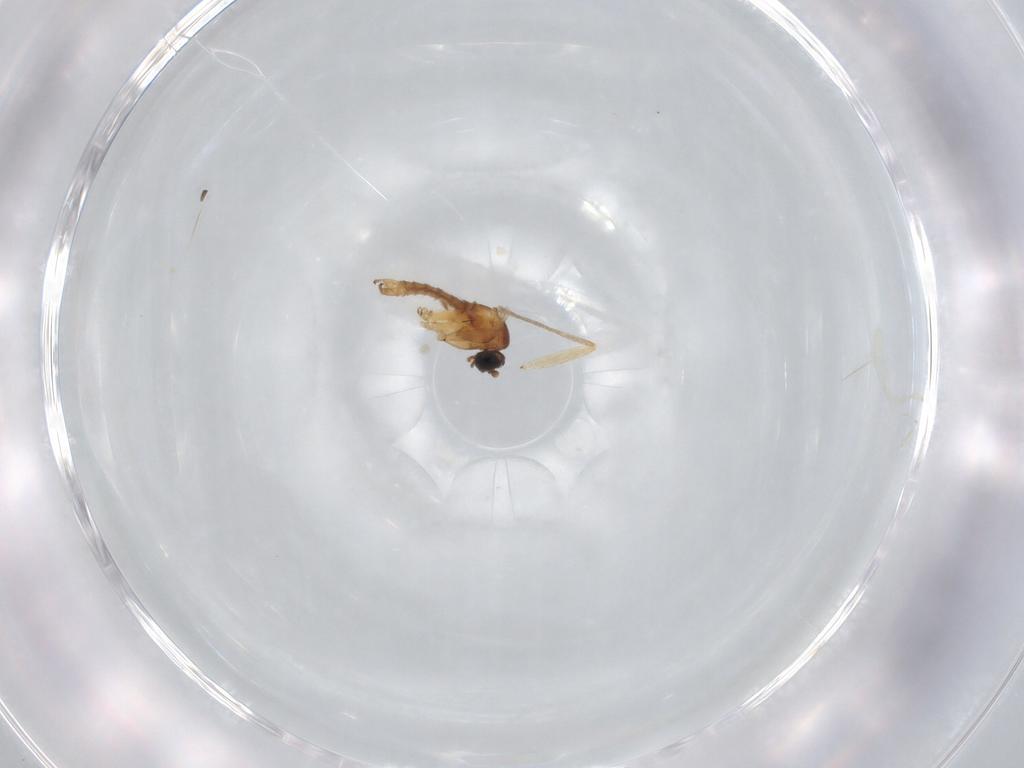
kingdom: Animalia
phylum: Arthropoda
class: Insecta
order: Diptera
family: Sciaridae
